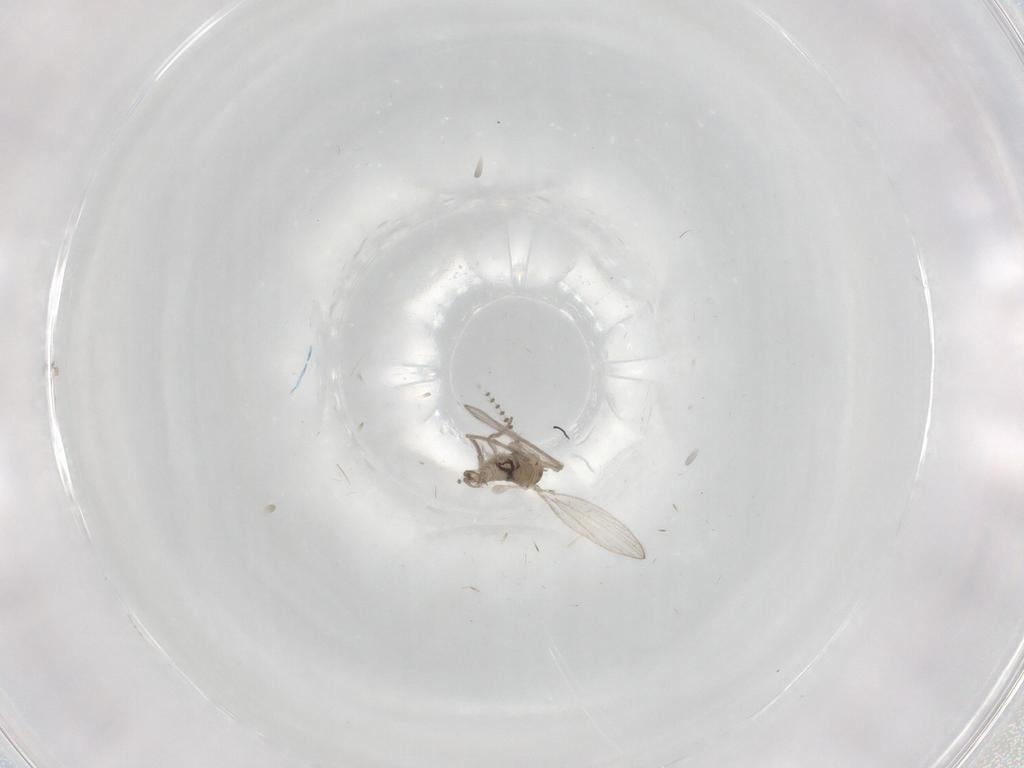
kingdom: Animalia
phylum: Arthropoda
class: Insecta
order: Diptera
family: Psychodidae
